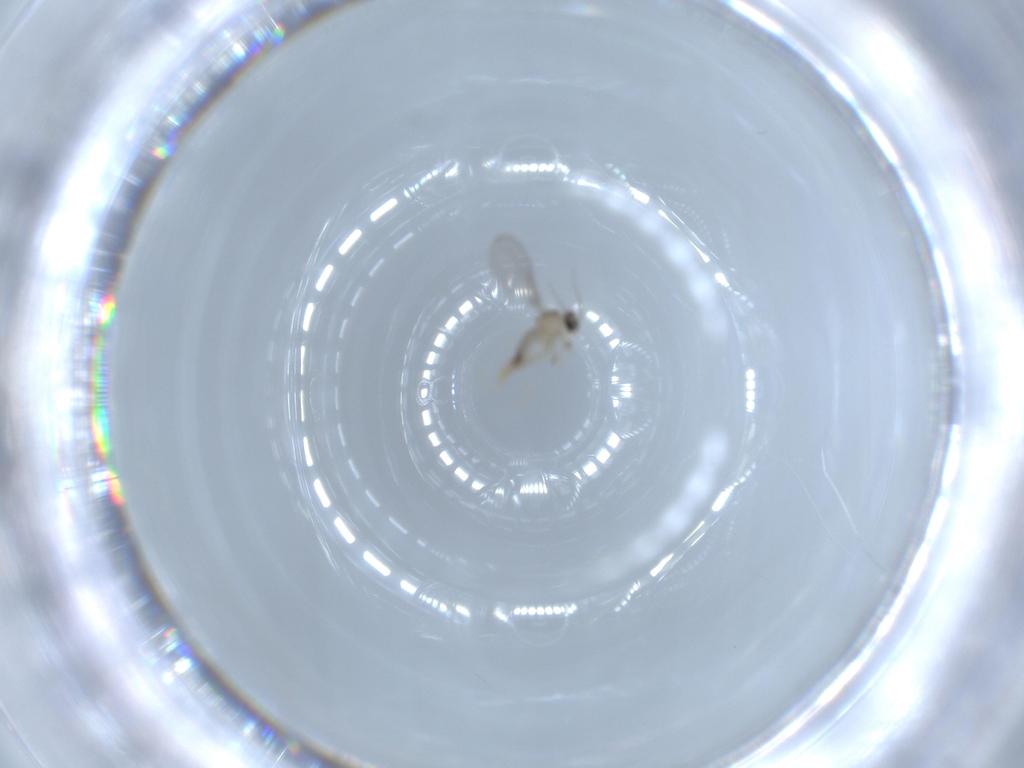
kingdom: Animalia
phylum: Arthropoda
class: Insecta
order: Diptera
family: Cecidomyiidae
